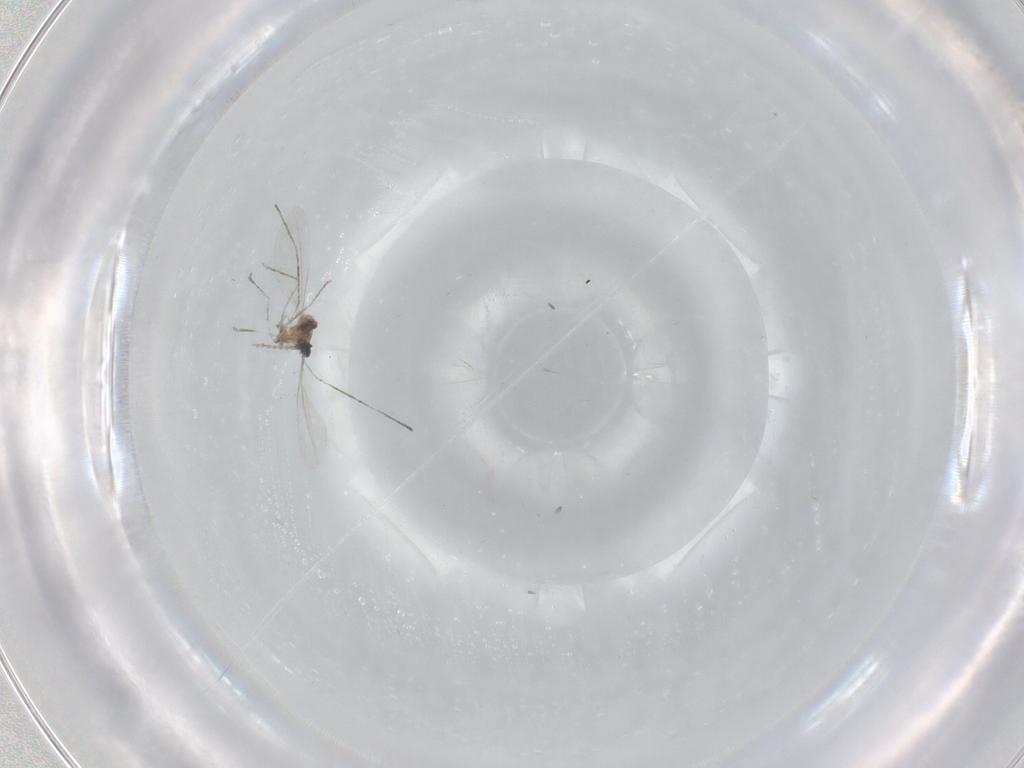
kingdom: Animalia
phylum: Arthropoda
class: Insecta
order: Diptera
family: Cecidomyiidae
